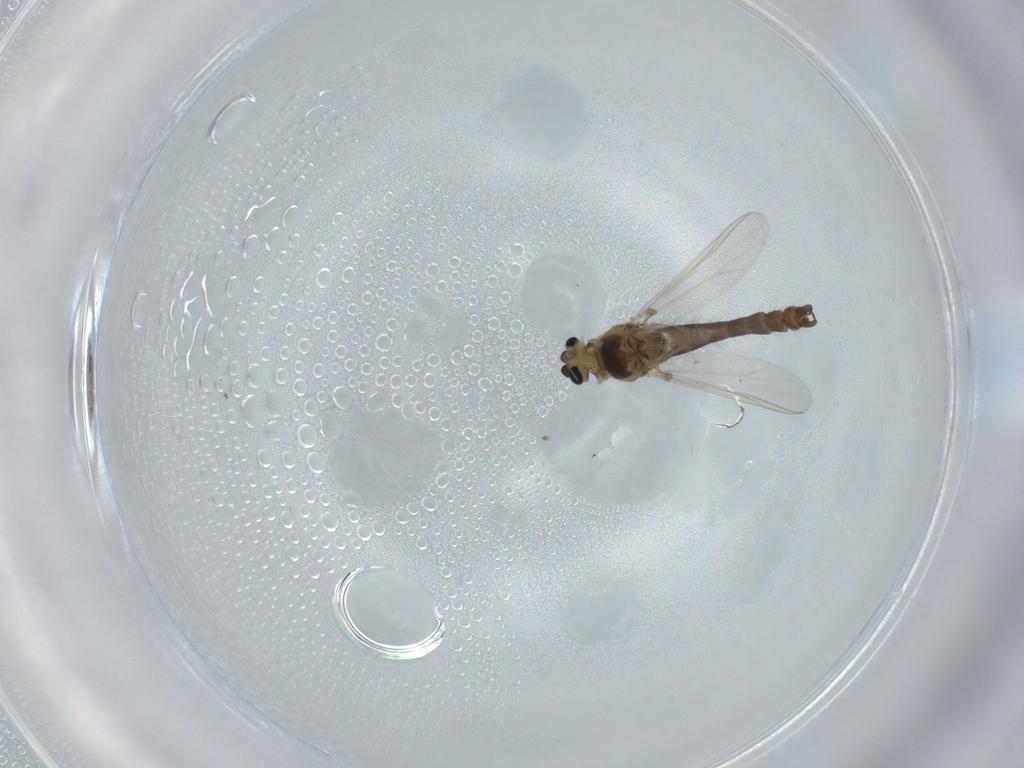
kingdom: Animalia
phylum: Arthropoda
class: Insecta
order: Diptera
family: Chironomidae
